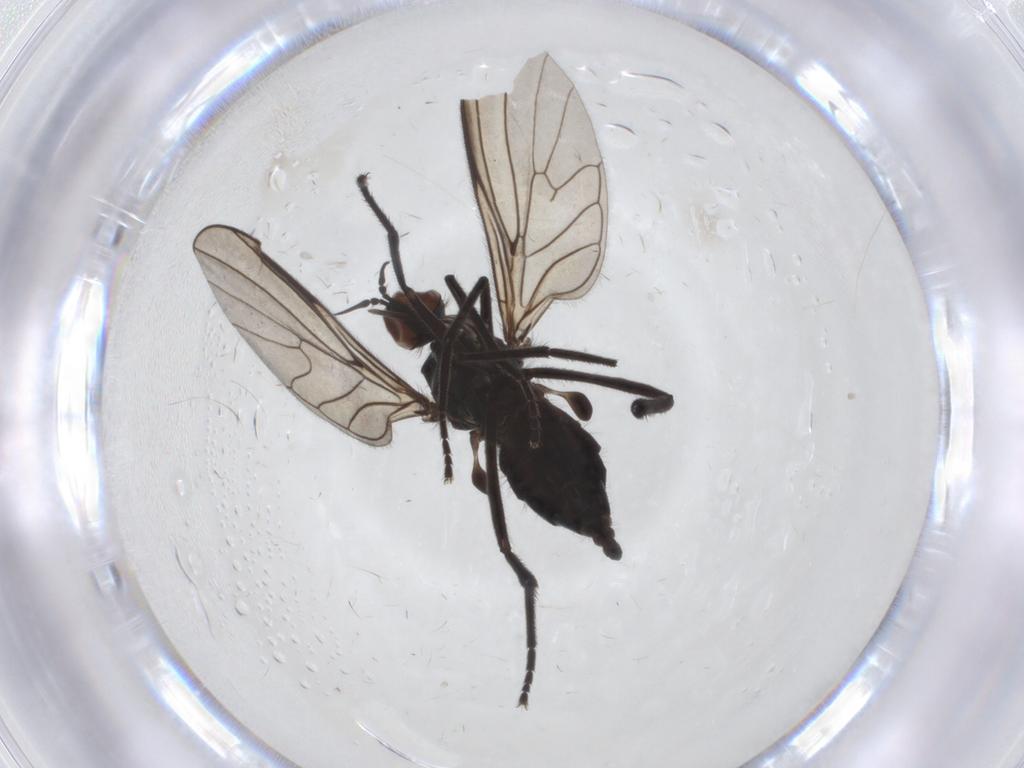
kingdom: Animalia
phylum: Arthropoda
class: Insecta
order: Diptera
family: Empididae
